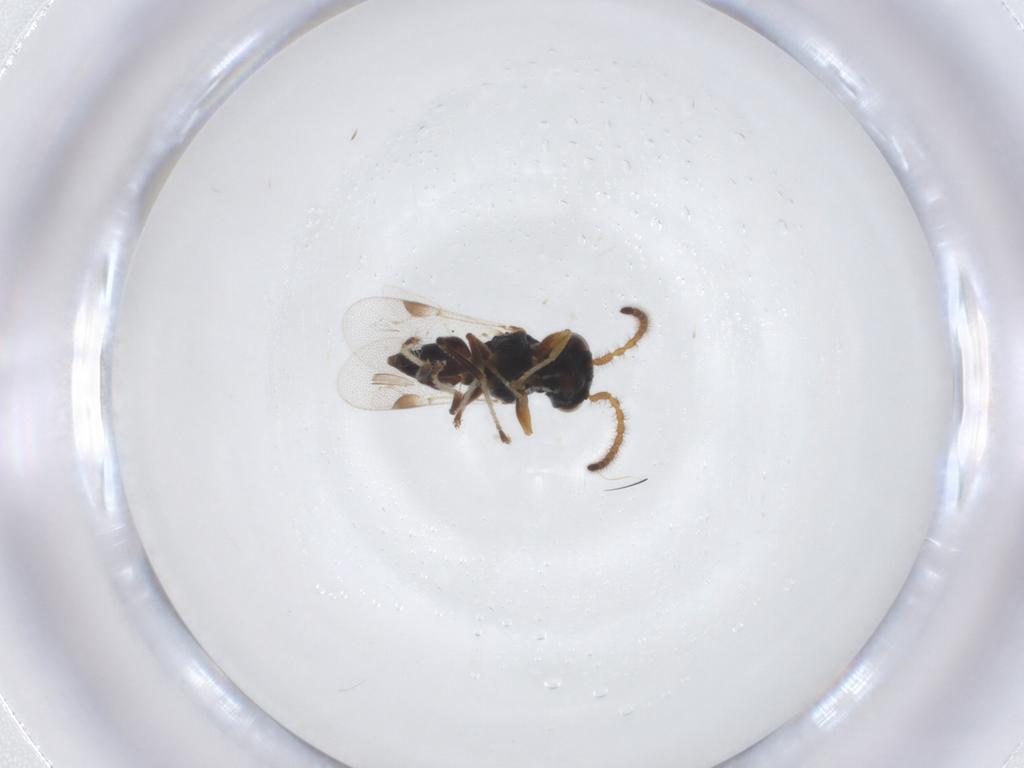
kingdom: Animalia
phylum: Arthropoda
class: Insecta
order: Hymenoptera
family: Dryinidae
